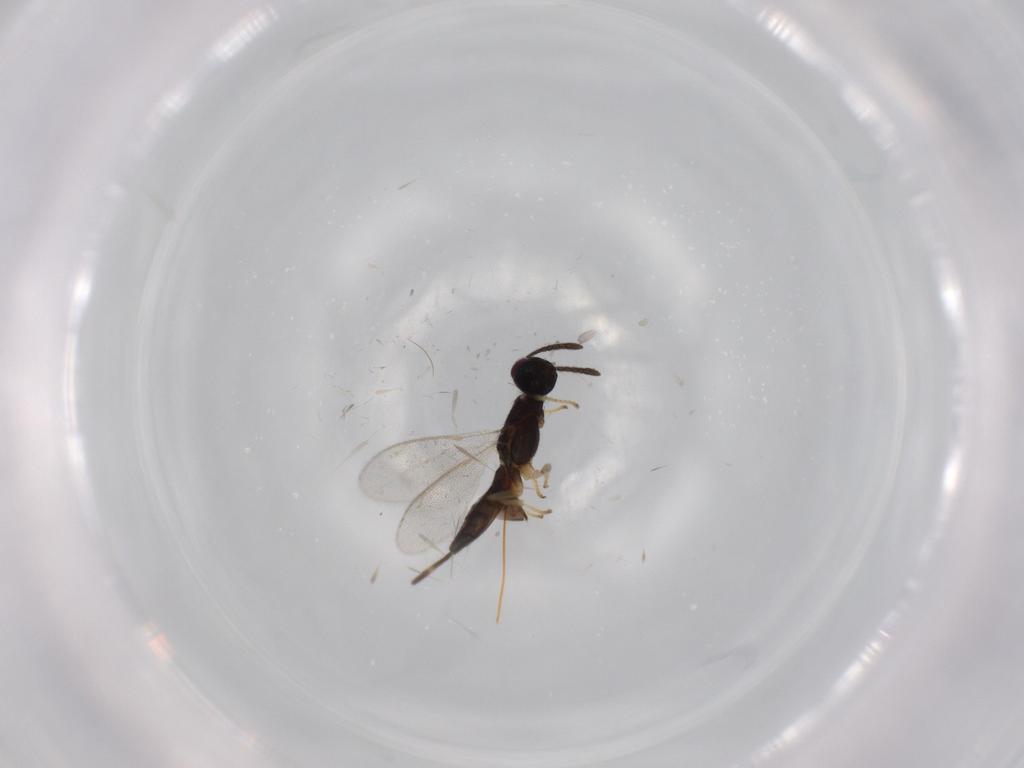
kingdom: Animalia
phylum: Arthropoda
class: Insecta
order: Hymenoptera
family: Eupelmidae
